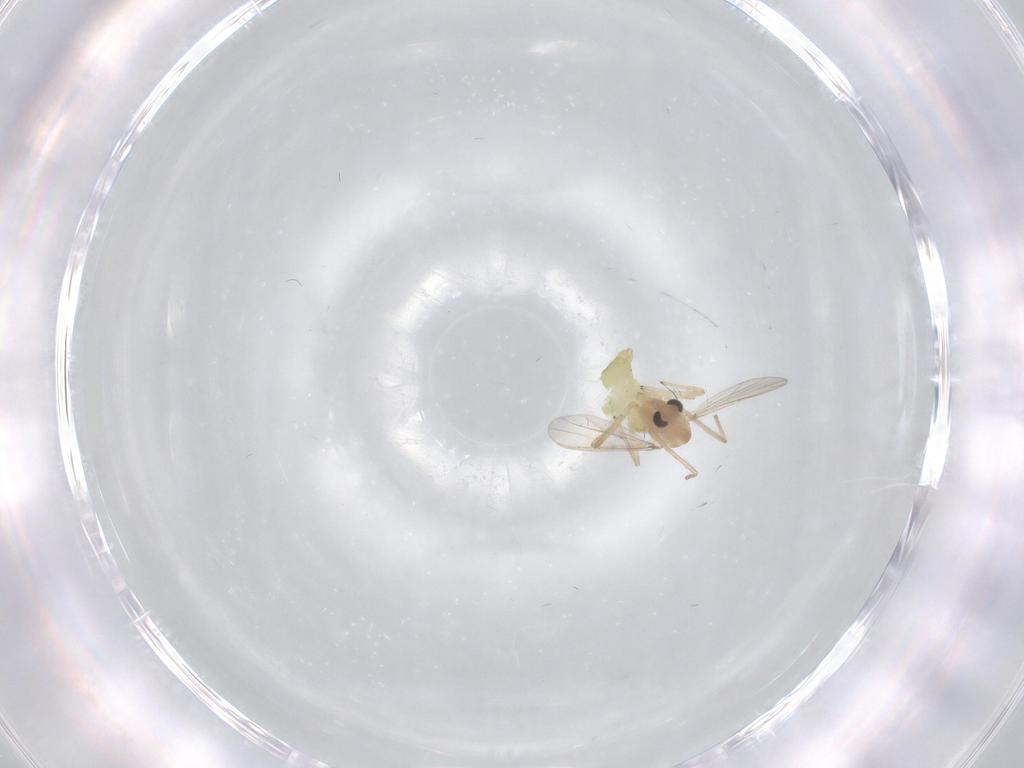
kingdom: Animalia
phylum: Arthropoda
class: Insecta
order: Diptera
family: Chironomidae
